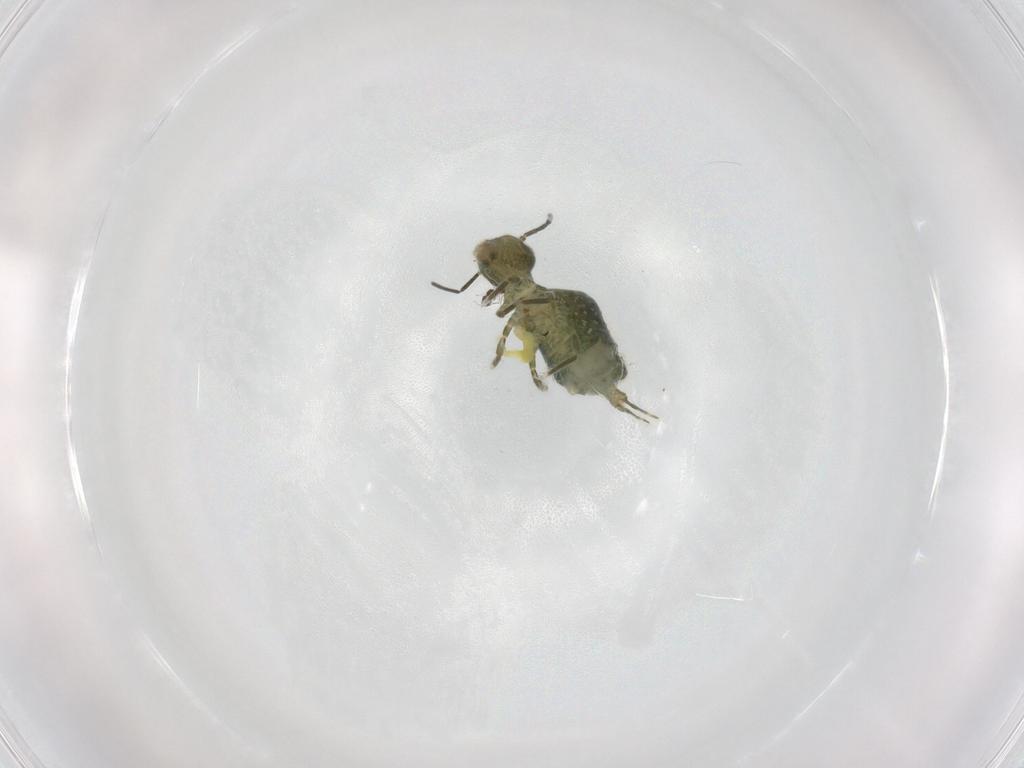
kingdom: Animalia
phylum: Arthropoda
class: Collembola
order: Symphypleona
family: Sminthuridae
